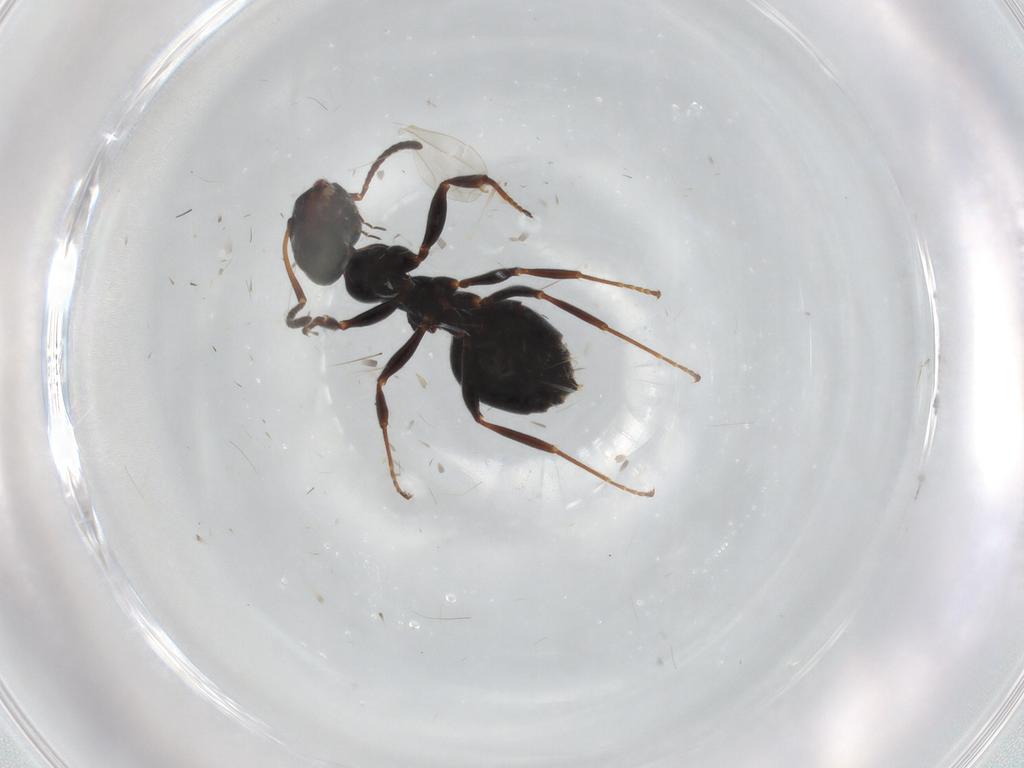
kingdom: Animalia
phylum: Arthropoda
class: Insecta
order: Hymenoptera
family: Formicidae
